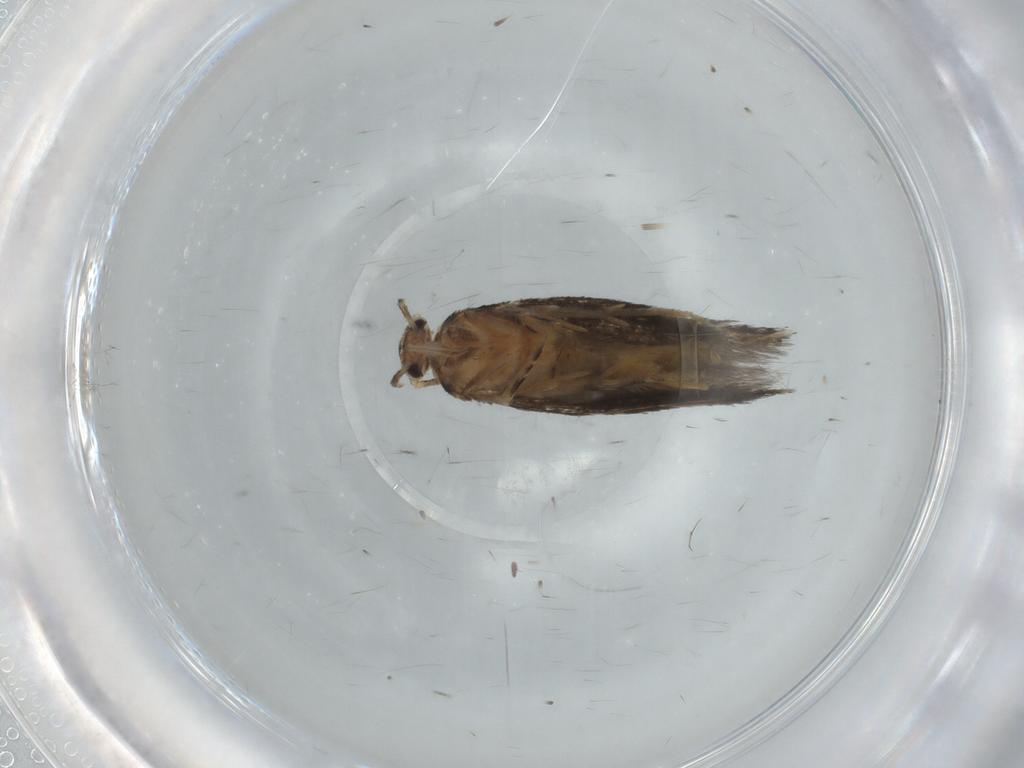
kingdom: Animalia
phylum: Arthropoda
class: Insecta
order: Lepidoptera
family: Elachistidae
